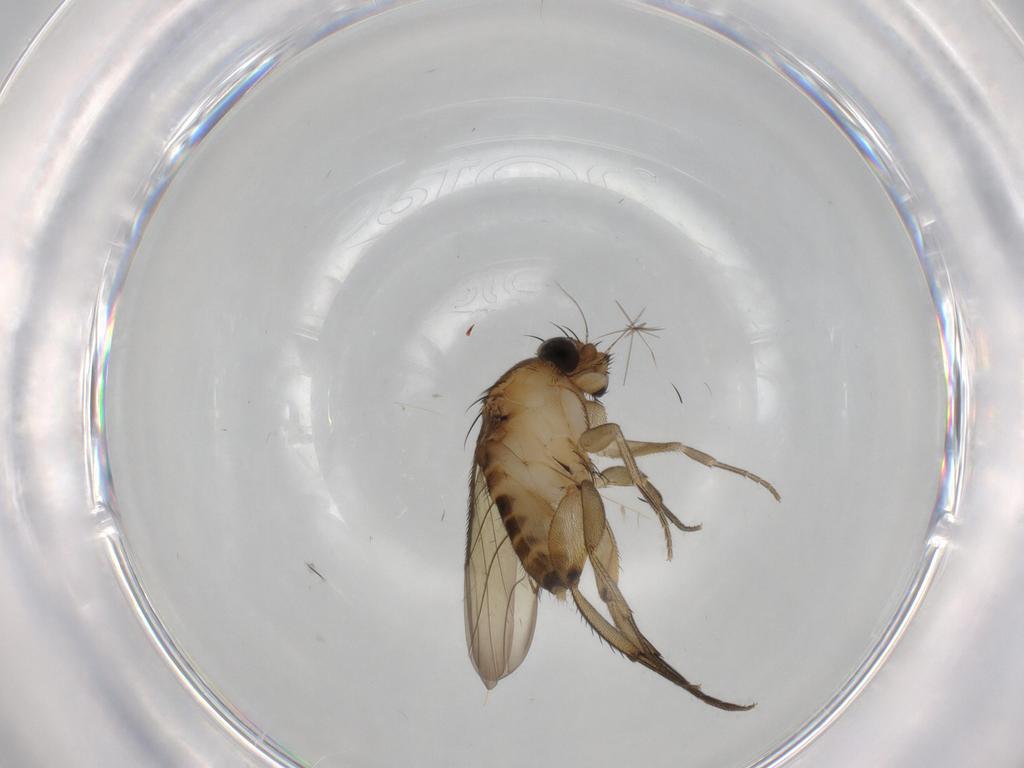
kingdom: Animalia
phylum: Arthropoda
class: Insecta
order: Diptera
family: Phoridae
